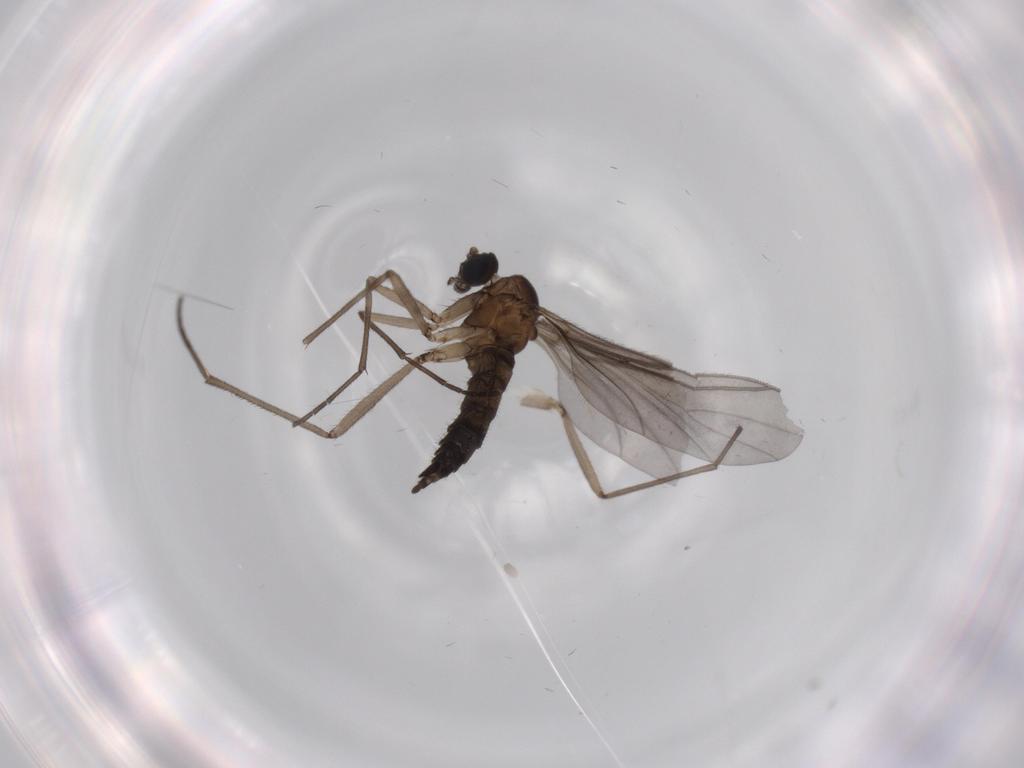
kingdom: Animalia
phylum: Arthropoda
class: Insecta
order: Diptera
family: Sciaridae
